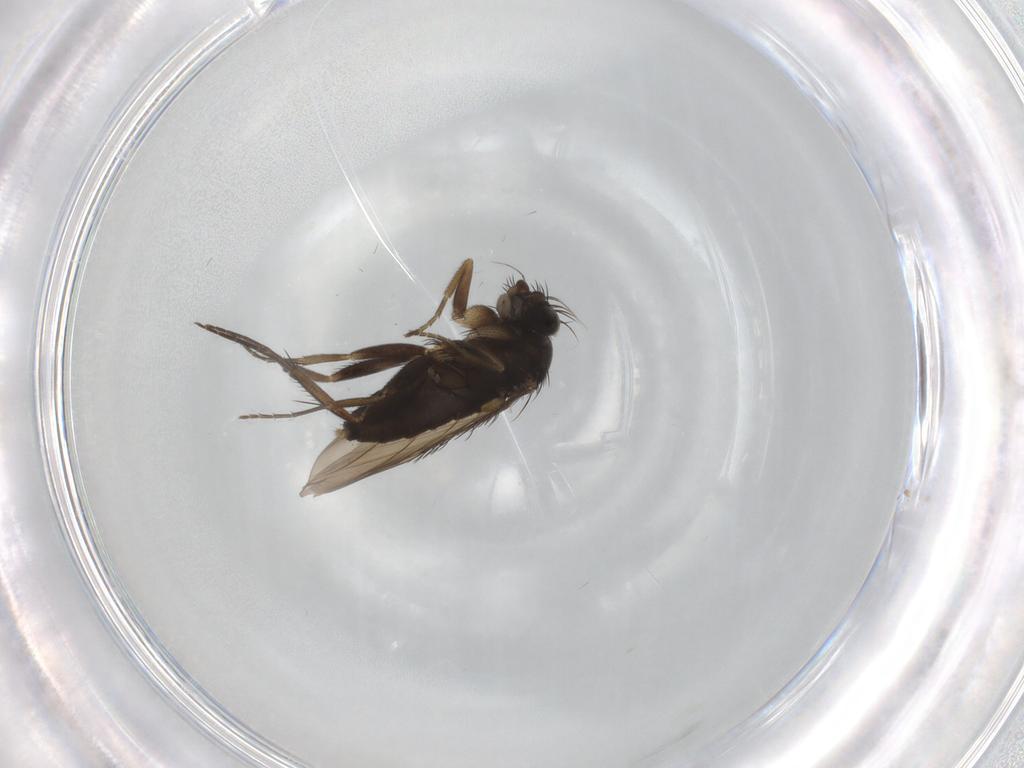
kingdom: Animalia
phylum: Arthropoda
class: Insecta
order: Diptera
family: Phoridae
